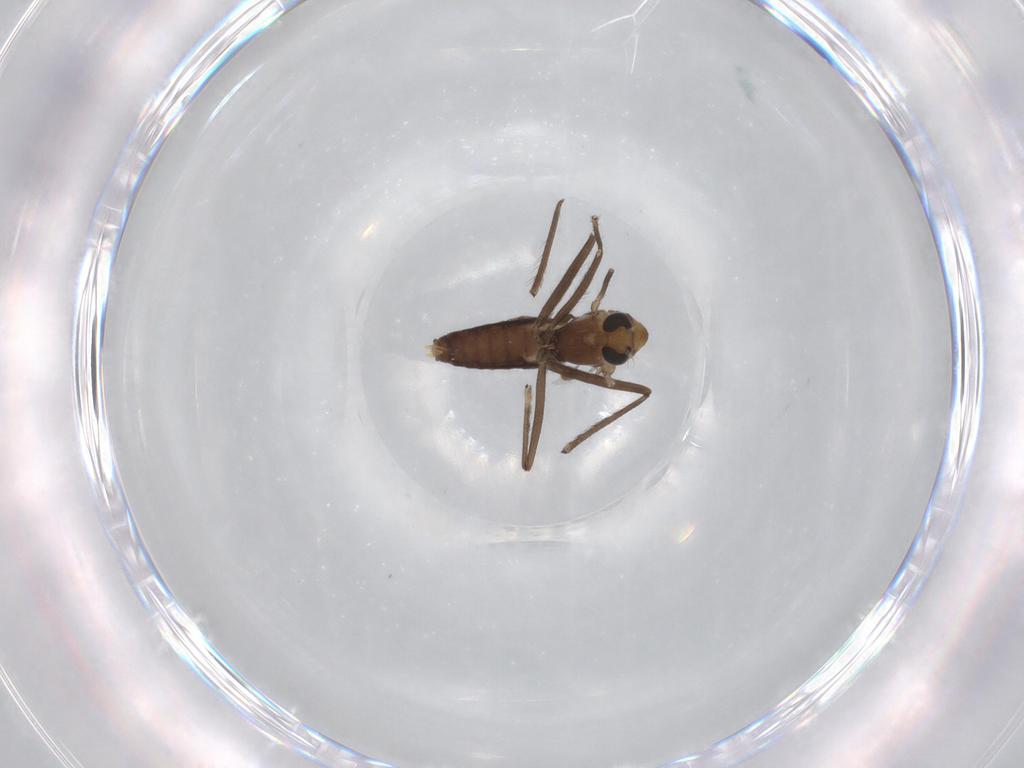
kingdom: Animalia
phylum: Arthropoda
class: Insecta
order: Diptera
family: Chironomidae
